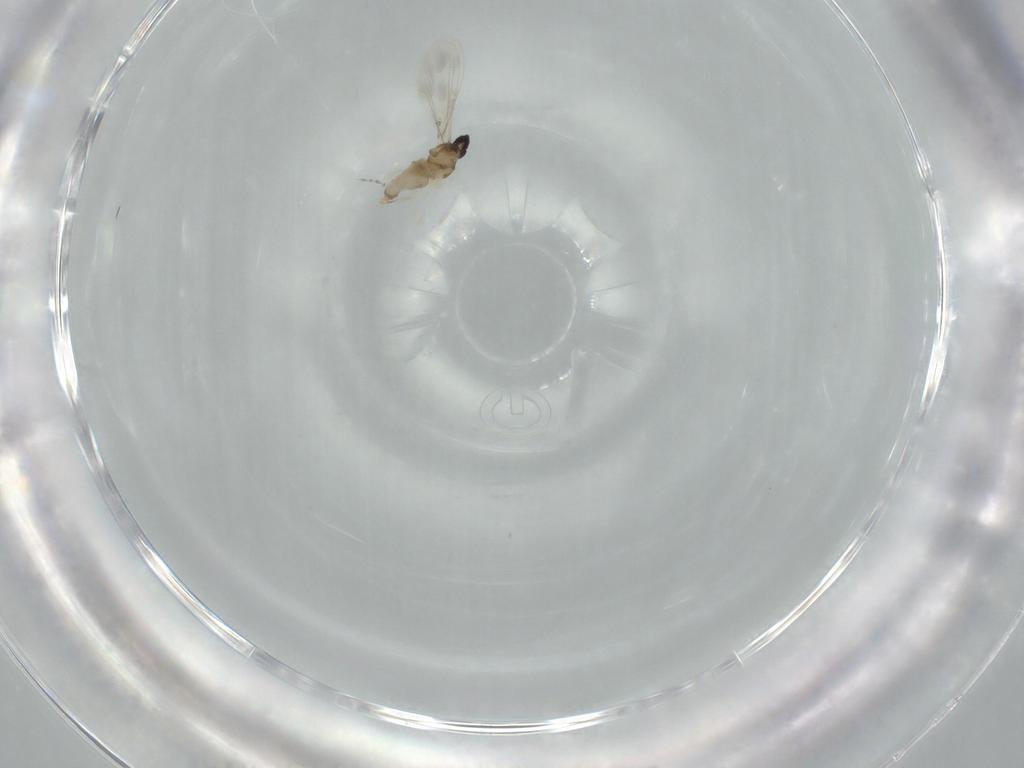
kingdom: Animalia
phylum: Arthropoda
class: Insecta
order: Diptera
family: Cecidomyiidae
